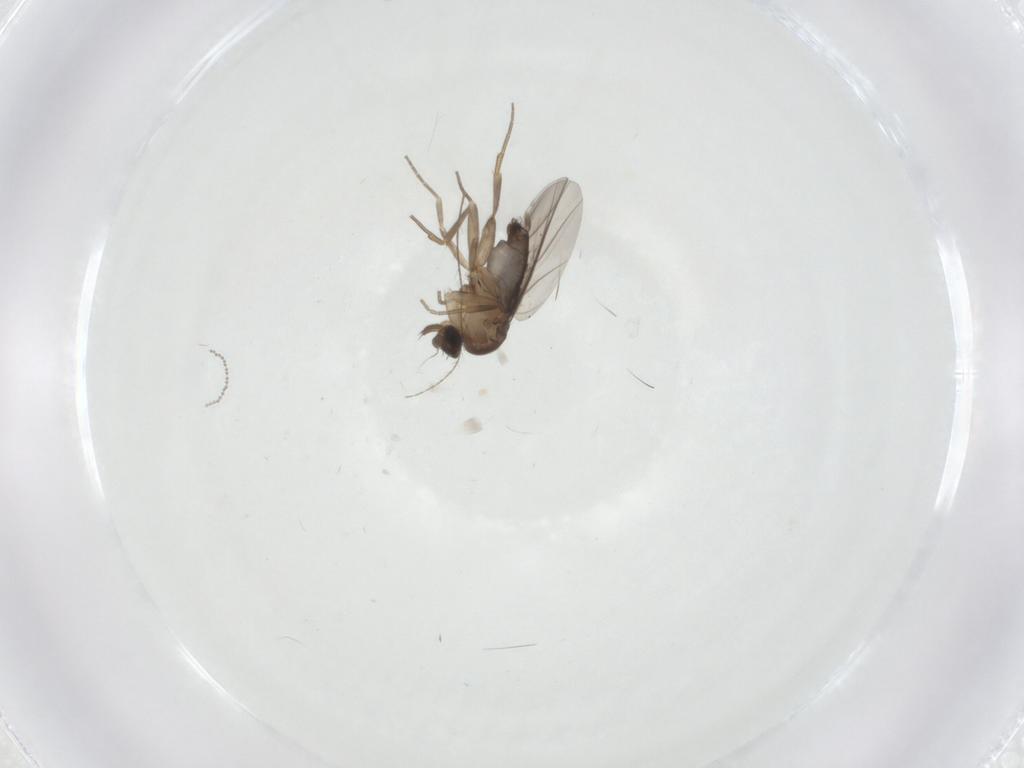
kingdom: Animalia
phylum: Arthropoda
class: Insecta
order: Diptera
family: Phoridae
